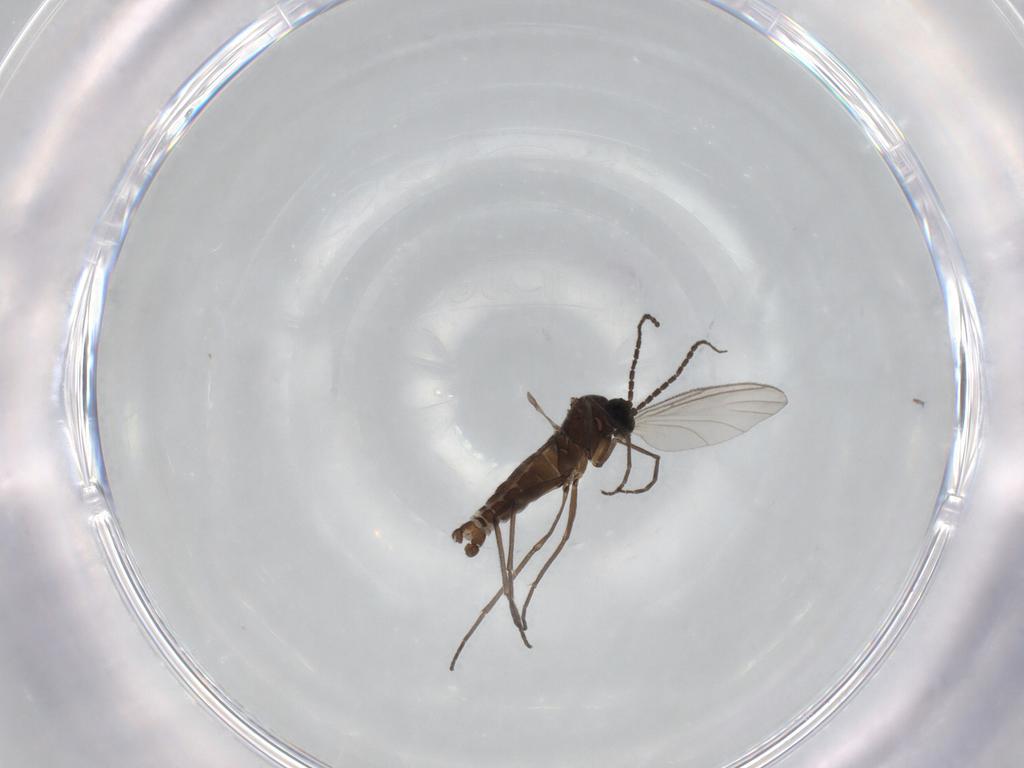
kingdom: Animalia
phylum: Arthropoda
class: Insecta
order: Diptera
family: Sciaridae
